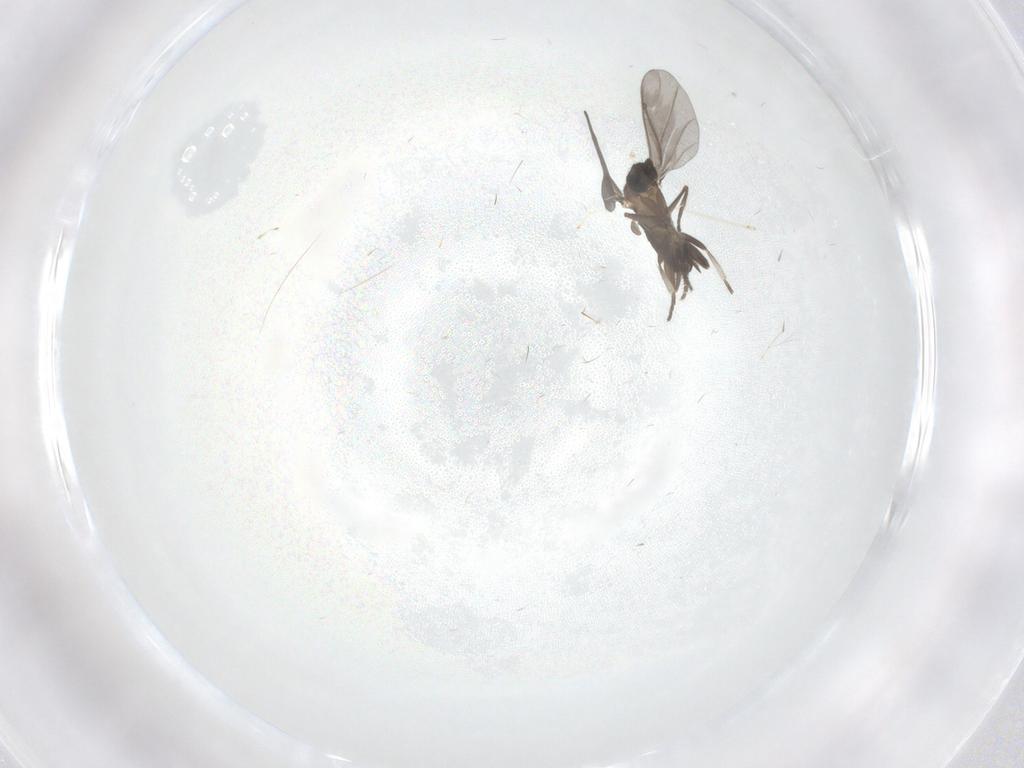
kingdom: Animalia
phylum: Arthropoda
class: Insecta
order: Diptera
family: Phoridae
